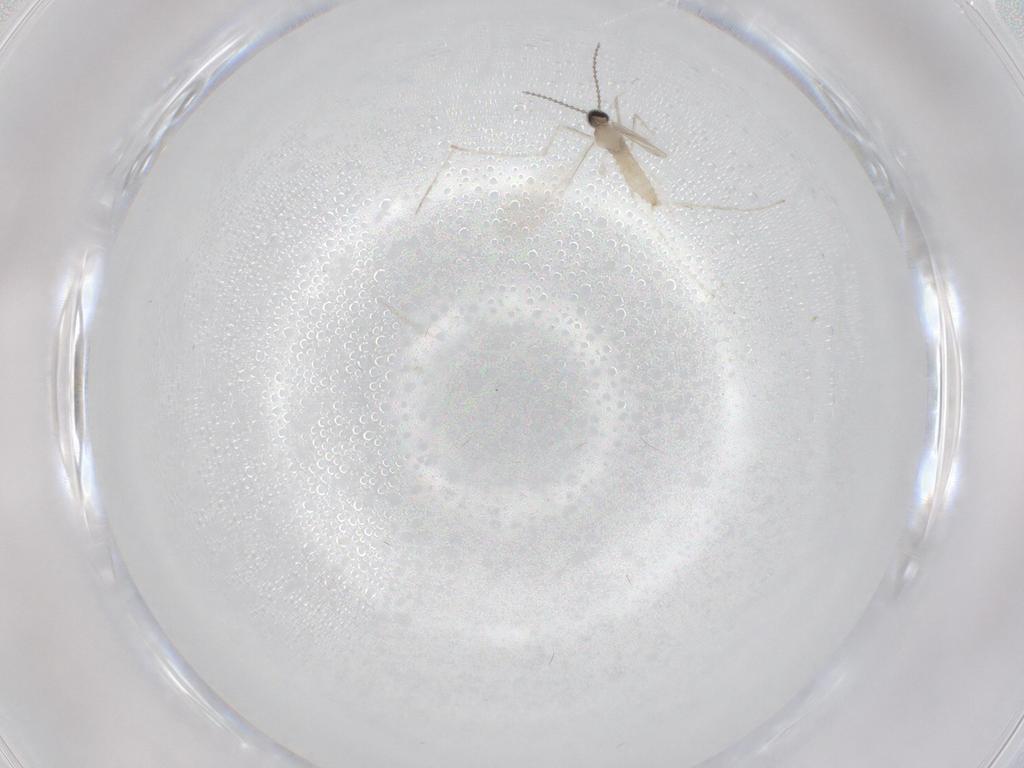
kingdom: Animalia
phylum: Arthropoda
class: Insecta
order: Diptera
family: Cecidomyiidae
